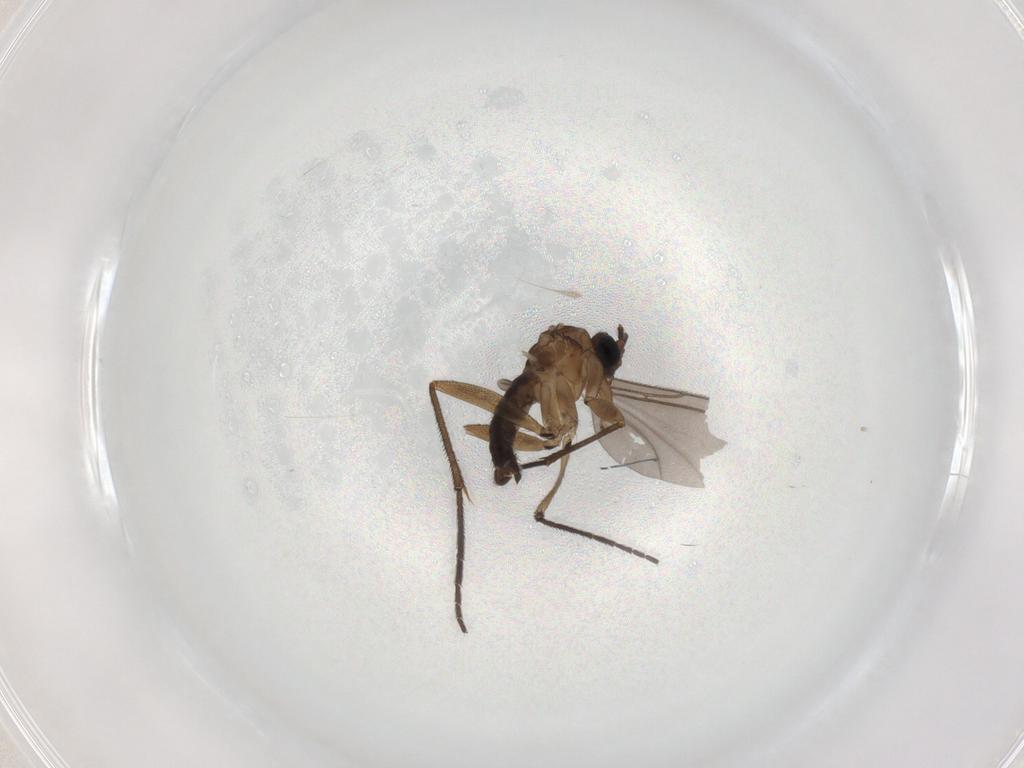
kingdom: Animalia
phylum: Arthropoda
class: Insecta
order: Diptera
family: Sciaridae
